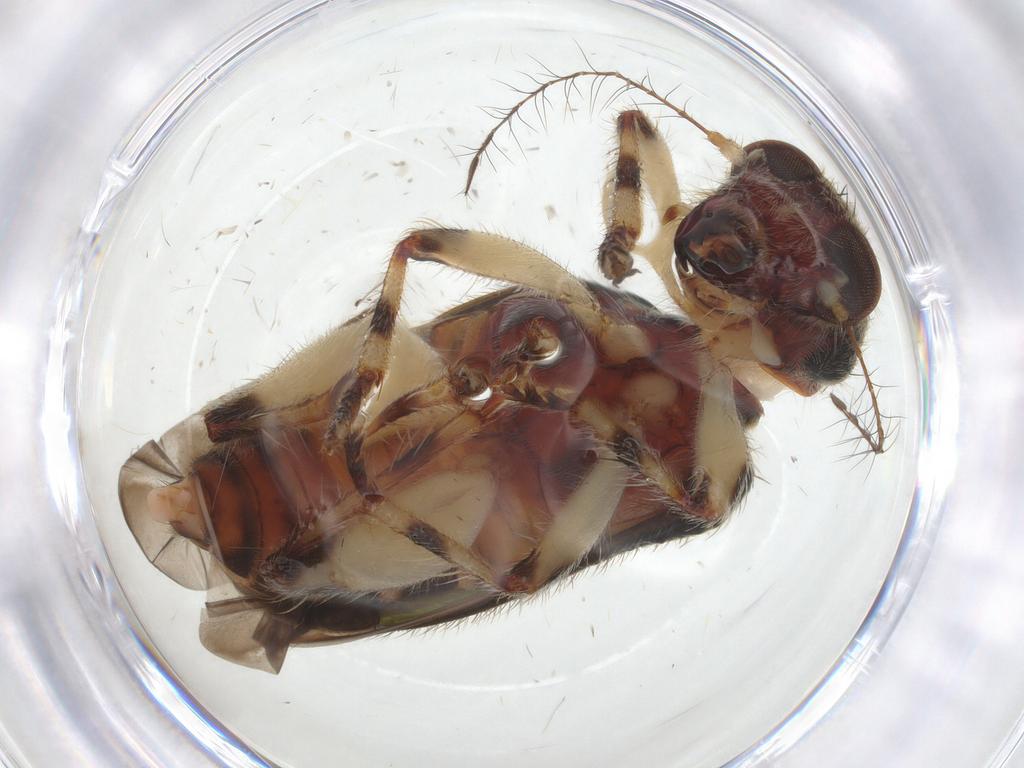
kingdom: Animalia
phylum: Arthropoda
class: Insecta
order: Coleoptera
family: Cleridae
